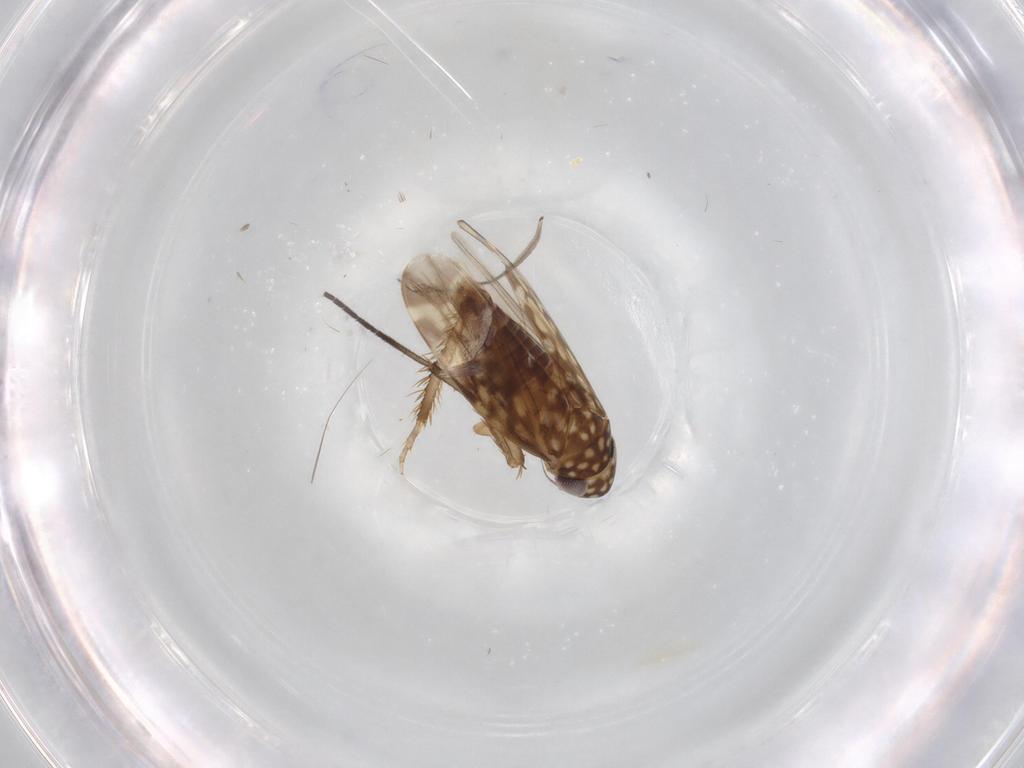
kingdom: Animalia
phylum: Arthropoda
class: Insecta
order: Hemiptera
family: Cicadellidae
